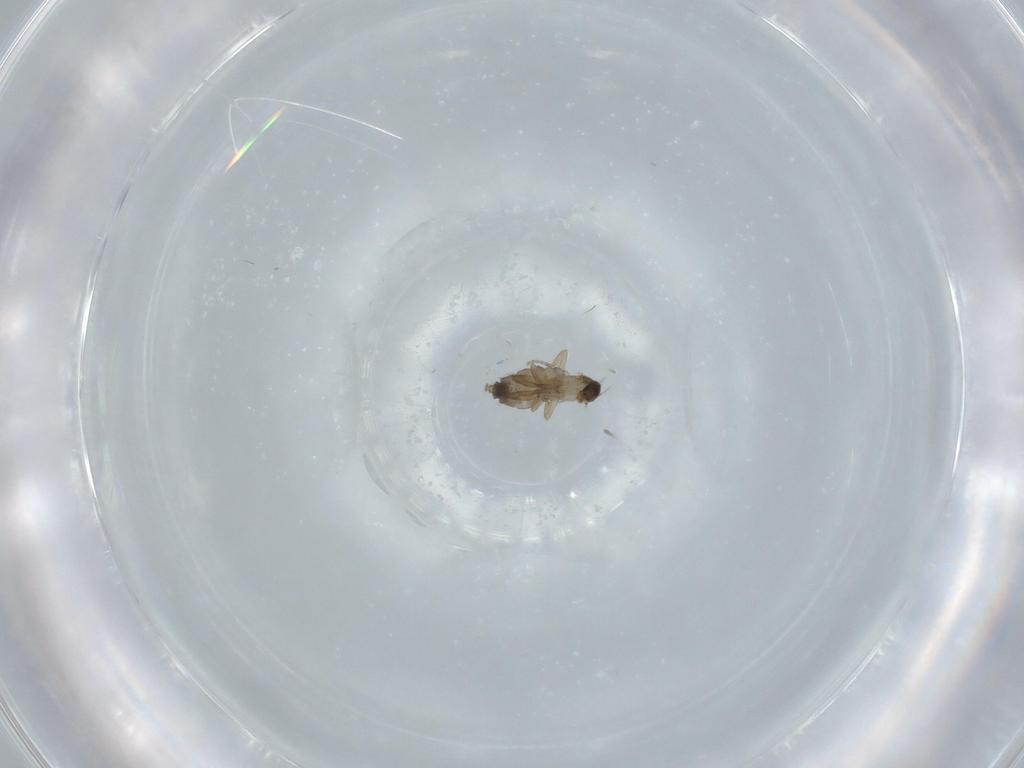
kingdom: Animalia
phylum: Arthropoda
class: Insecta
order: Diptera
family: Chironomidae
